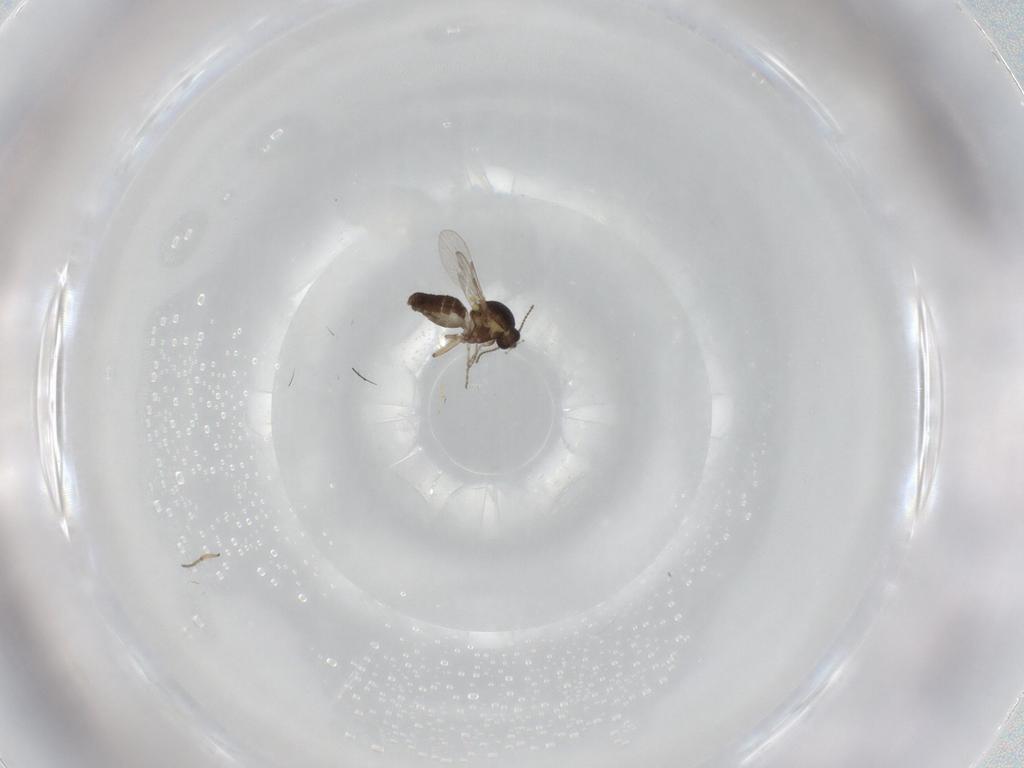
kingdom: Animalia
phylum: Arthropoda
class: Insecta
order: Diptera
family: Ceratopogonidae
